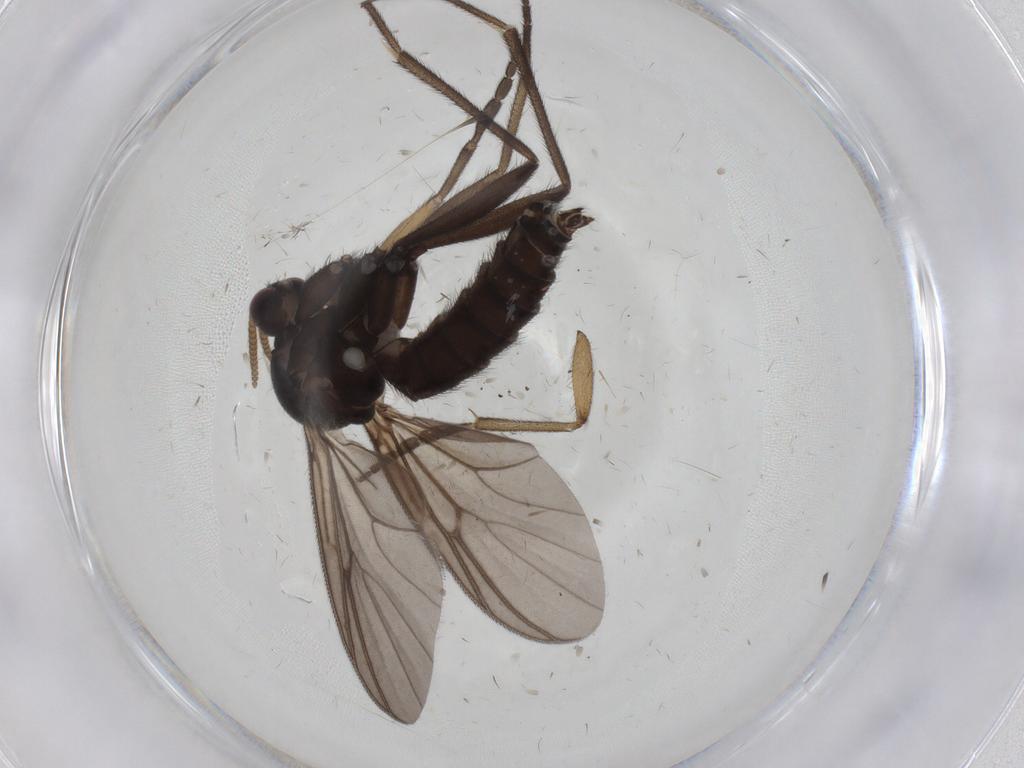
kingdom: Animalia
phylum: Arthropoda
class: Insecta
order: Diptera
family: Mycetophilidae
